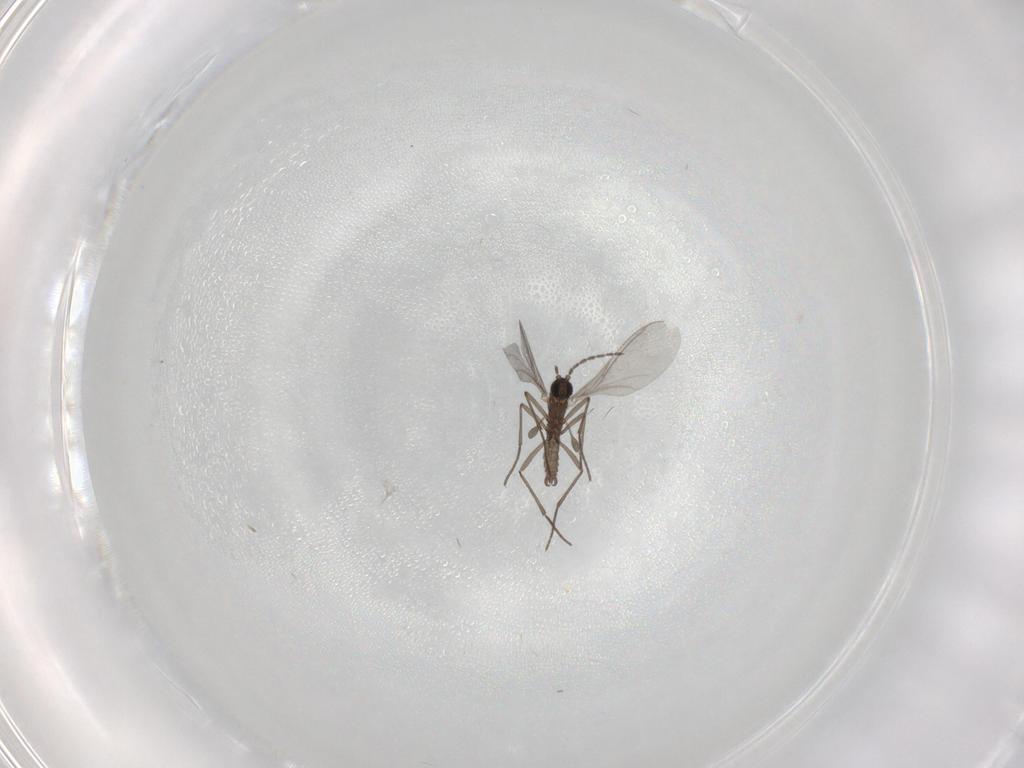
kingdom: Animalia
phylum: Arthropoda
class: Insecta
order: Diptera
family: Sciaridae
